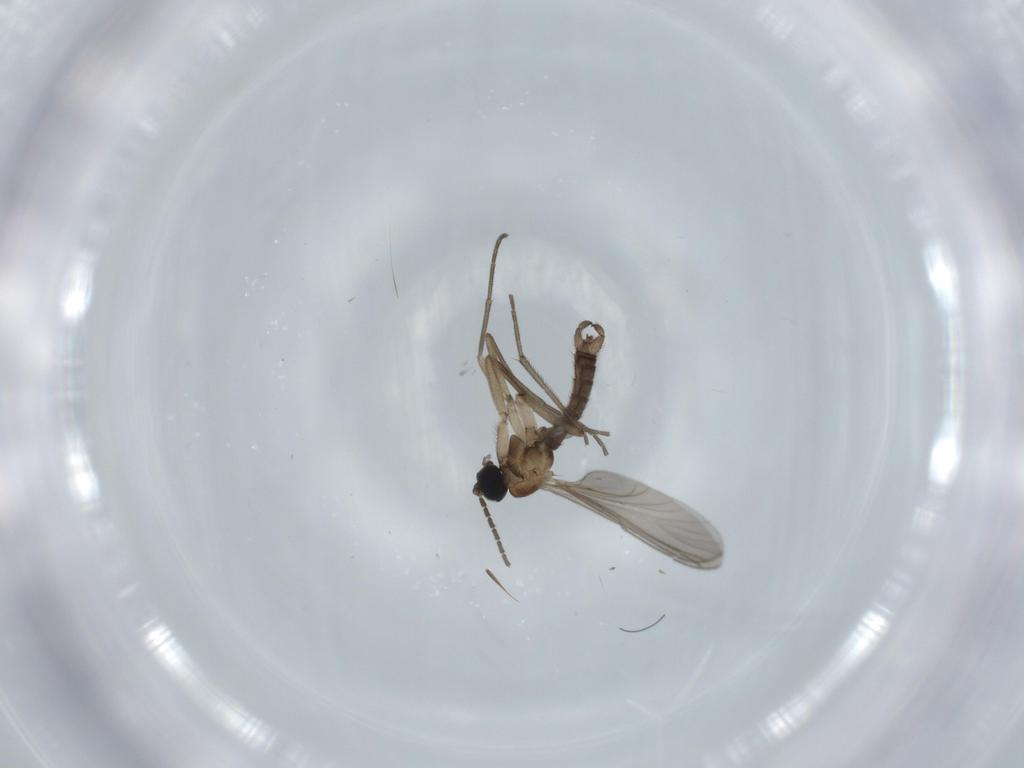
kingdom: Animalia
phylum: Arthropoda
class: Insecta
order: Diptera
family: Sciaridae
